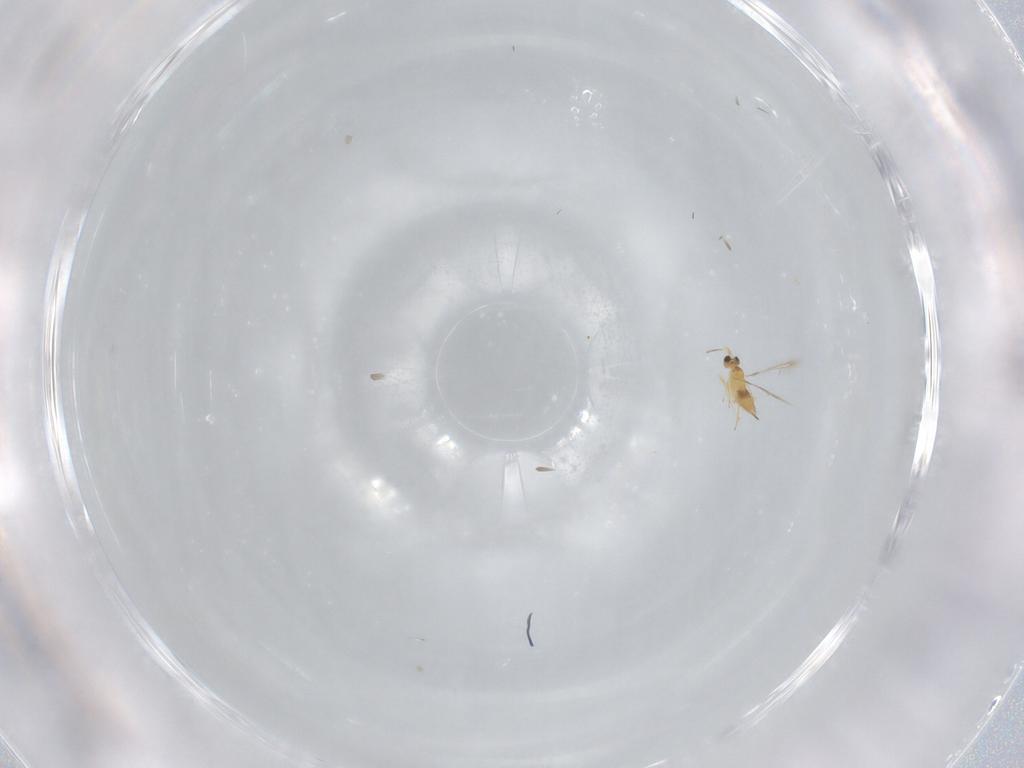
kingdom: Animalia
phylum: Arthropoda
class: Insecta
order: Hymenoptera
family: Mymaridae
